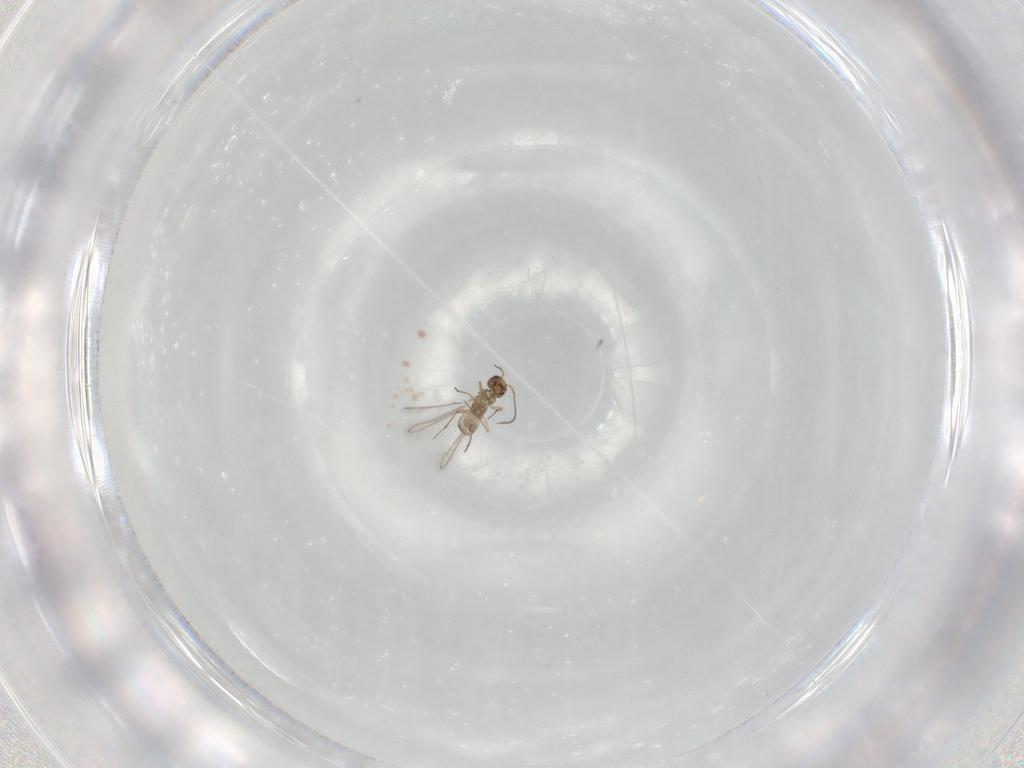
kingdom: Animalia
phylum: Arthropoda
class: Insecta
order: Hymenoptera
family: Mymaridae
